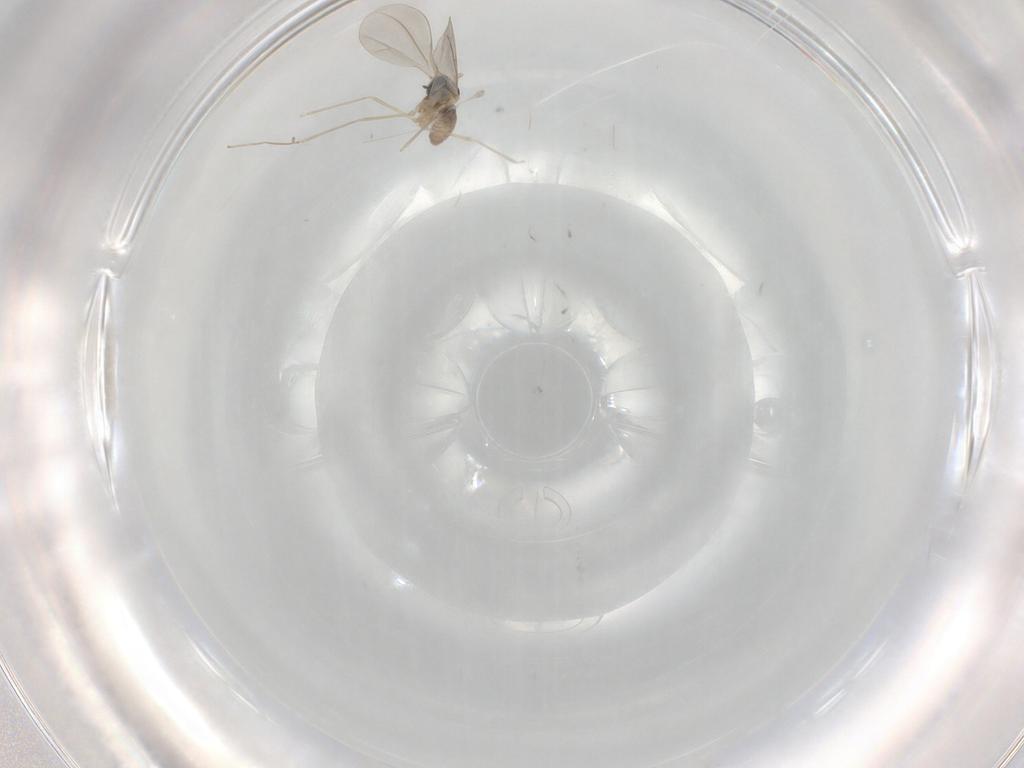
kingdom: Animalia
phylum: Arthropoda
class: Insecta
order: Diptera
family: Cecidomyiidae
